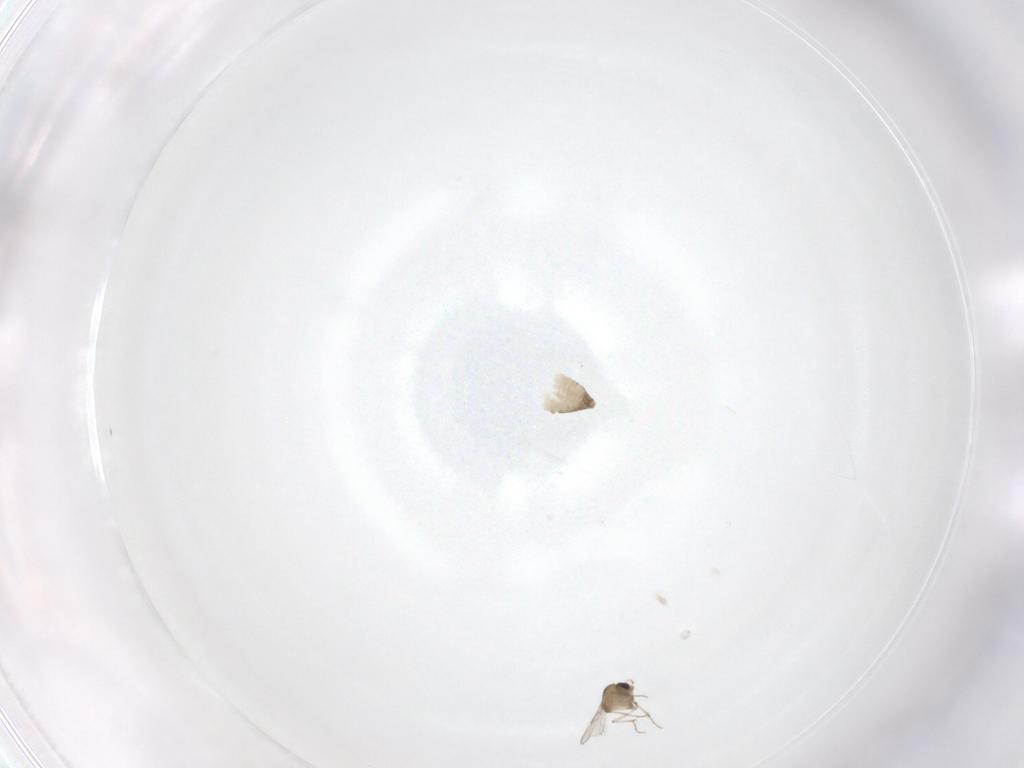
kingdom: Animalia
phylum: Arthropoda
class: Insecta
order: Diptera
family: Chironomidae
